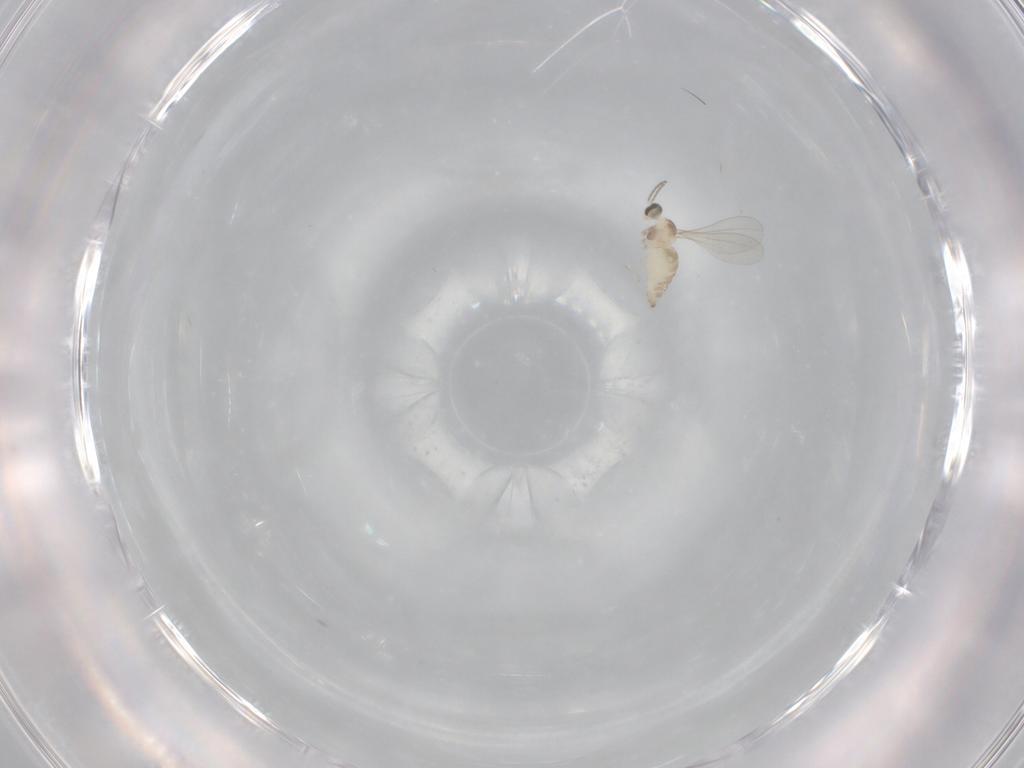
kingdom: Animalia
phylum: Arthropoda
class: Insecta
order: Diptera
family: Cecidomyiidae
